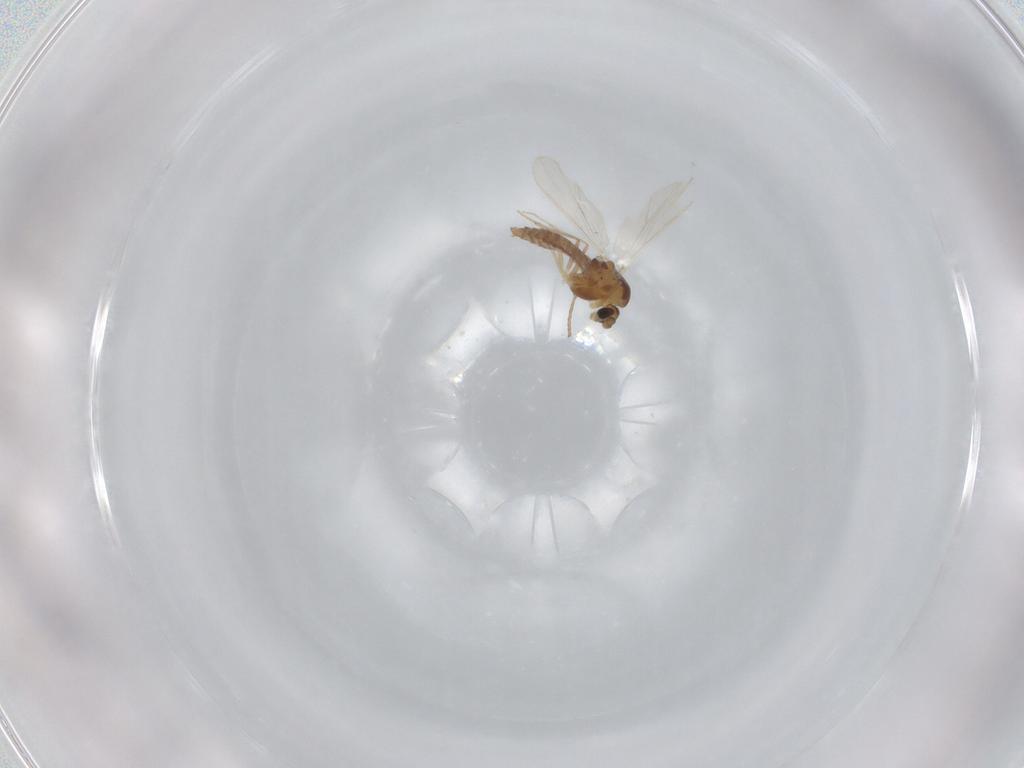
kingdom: Animalia
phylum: Arthropoda
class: Insecta
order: Diptera
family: Chironomidae
